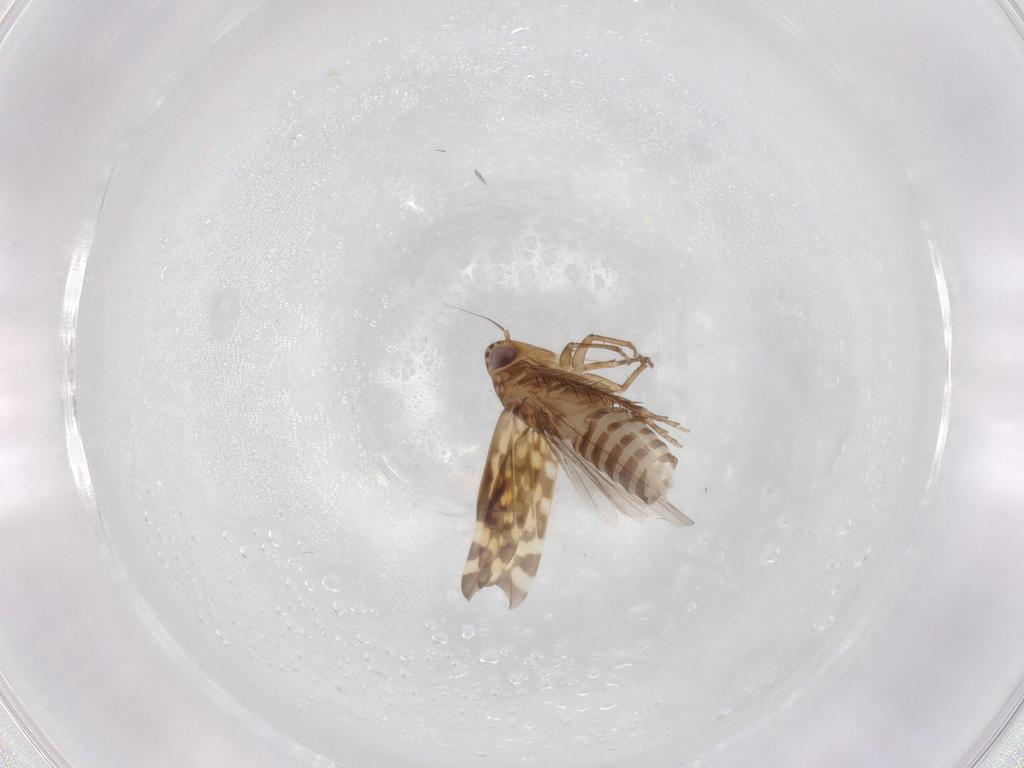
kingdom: Animalia
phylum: Arthropoda
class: Insecta
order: Hemiptera
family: Cicadellidae
